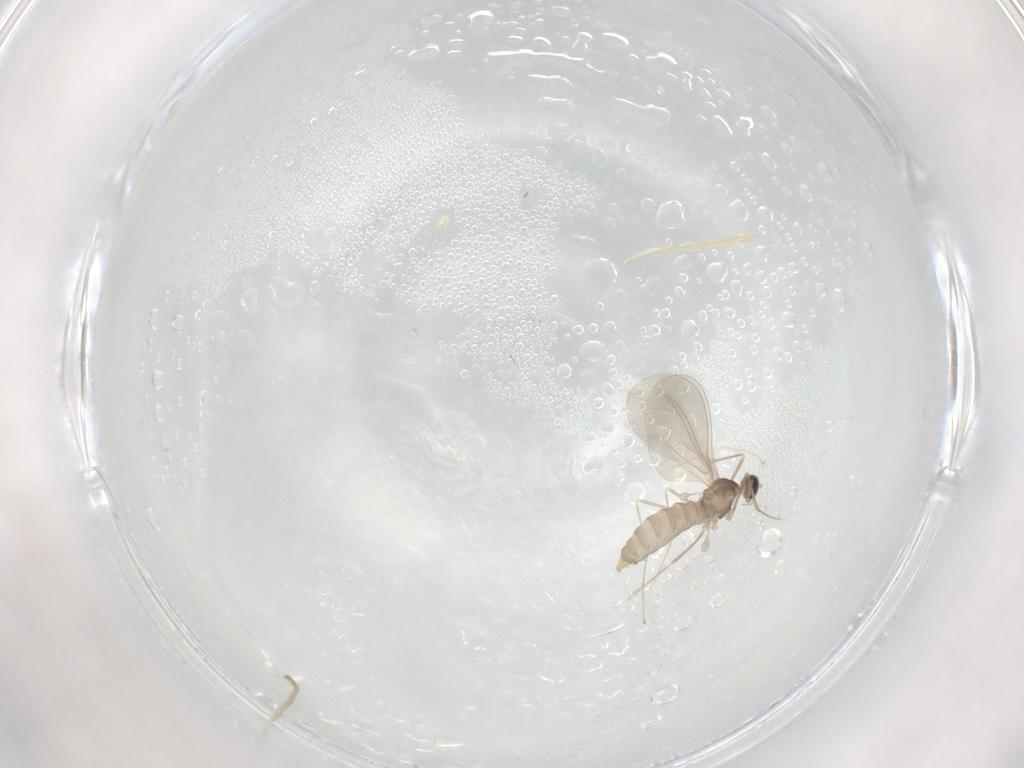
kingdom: Animalia
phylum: Arthropoda
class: Insecta
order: Diptera
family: Cecidomyiidae
